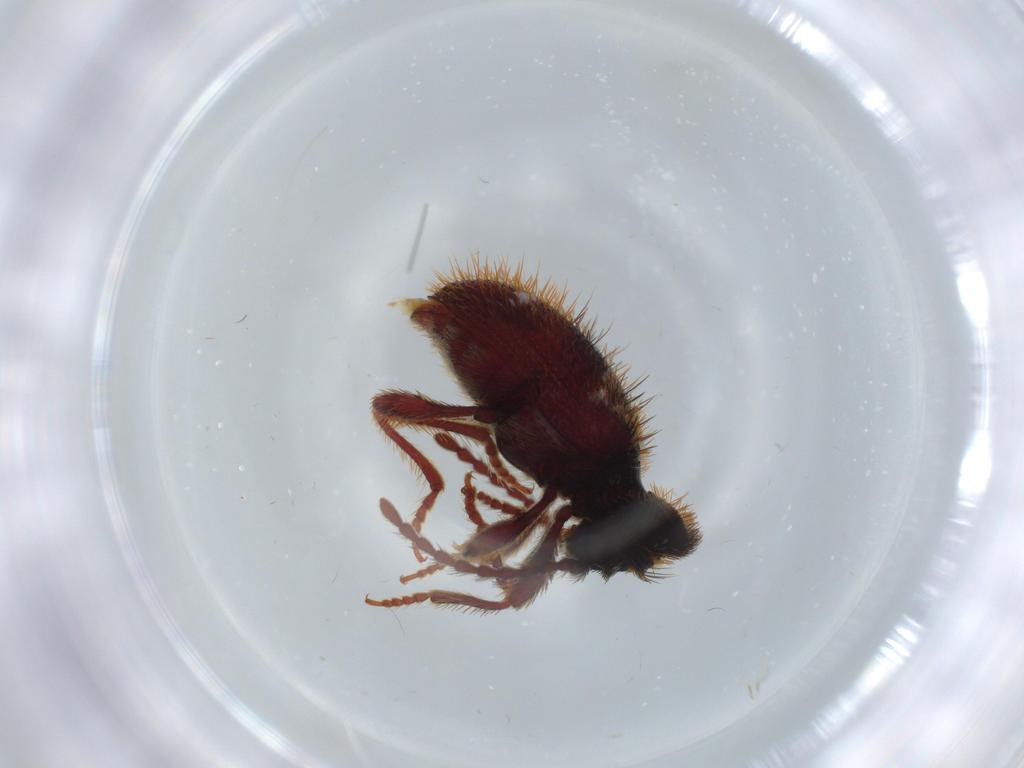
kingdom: Animalia
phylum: Arthropoda
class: Insecta
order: Coleoptera
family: Ptinidae
